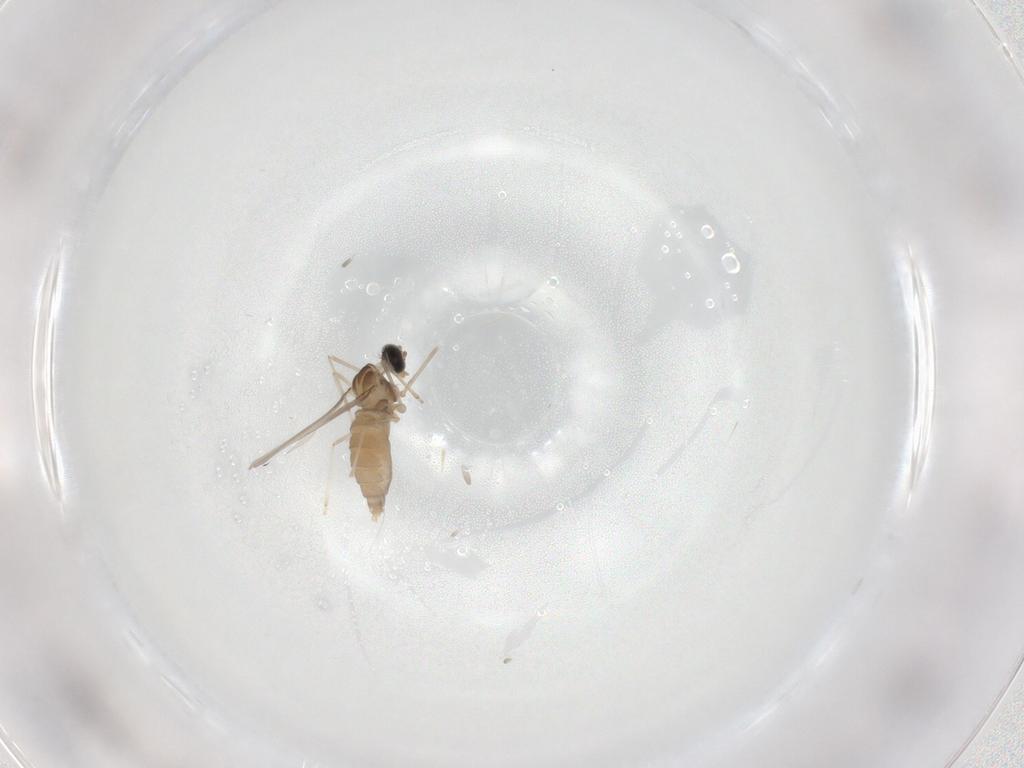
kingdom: Animalia
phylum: Arthropoda
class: Insecta
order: Diptera
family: Cecidomyiidae
